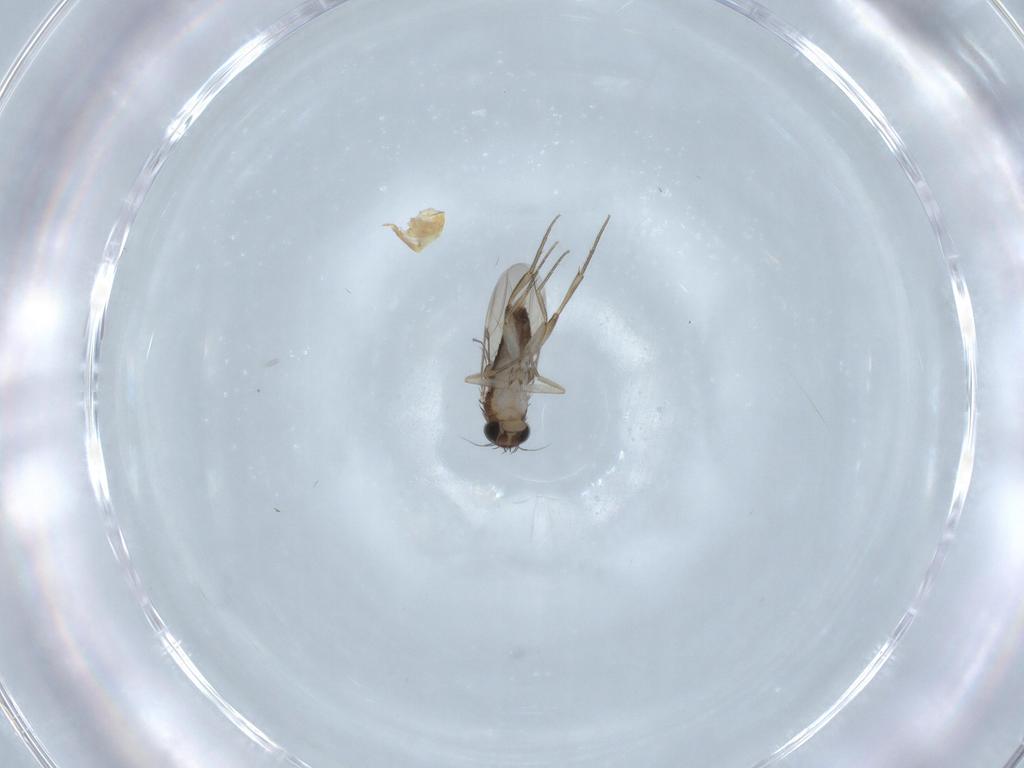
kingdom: Animalia
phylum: Arthropoda
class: Insecta
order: Diptera
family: Phoridae
